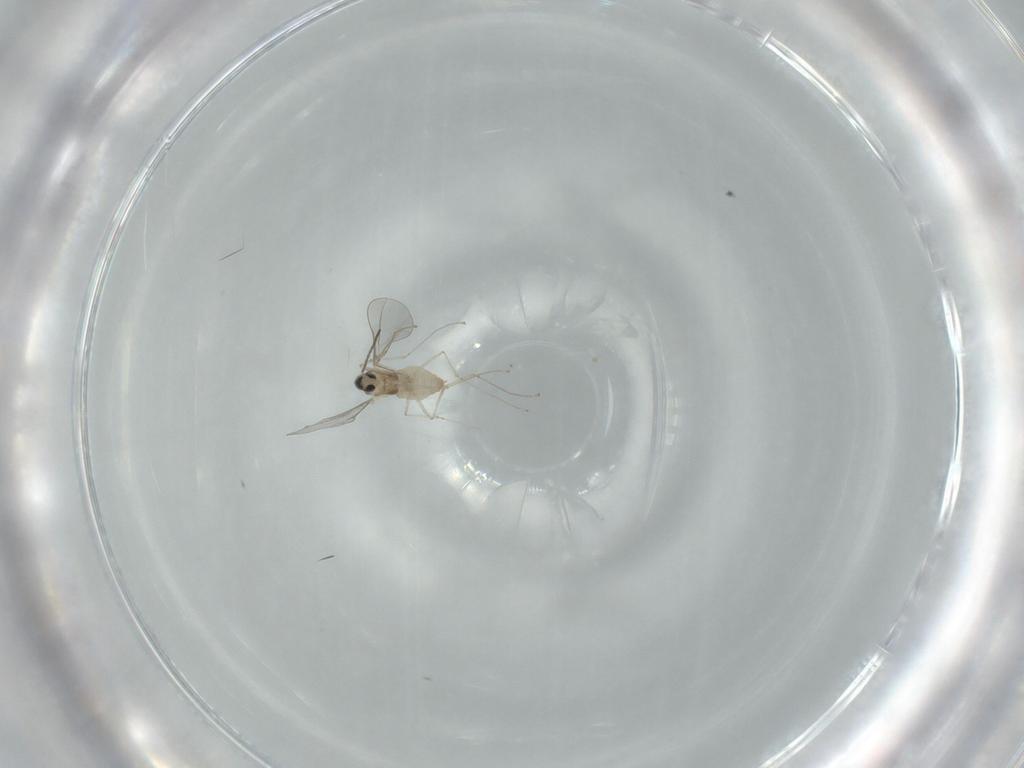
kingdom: Animalia
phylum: Arthropoda
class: Insecta
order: Diptera
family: Cecidomyiidae
